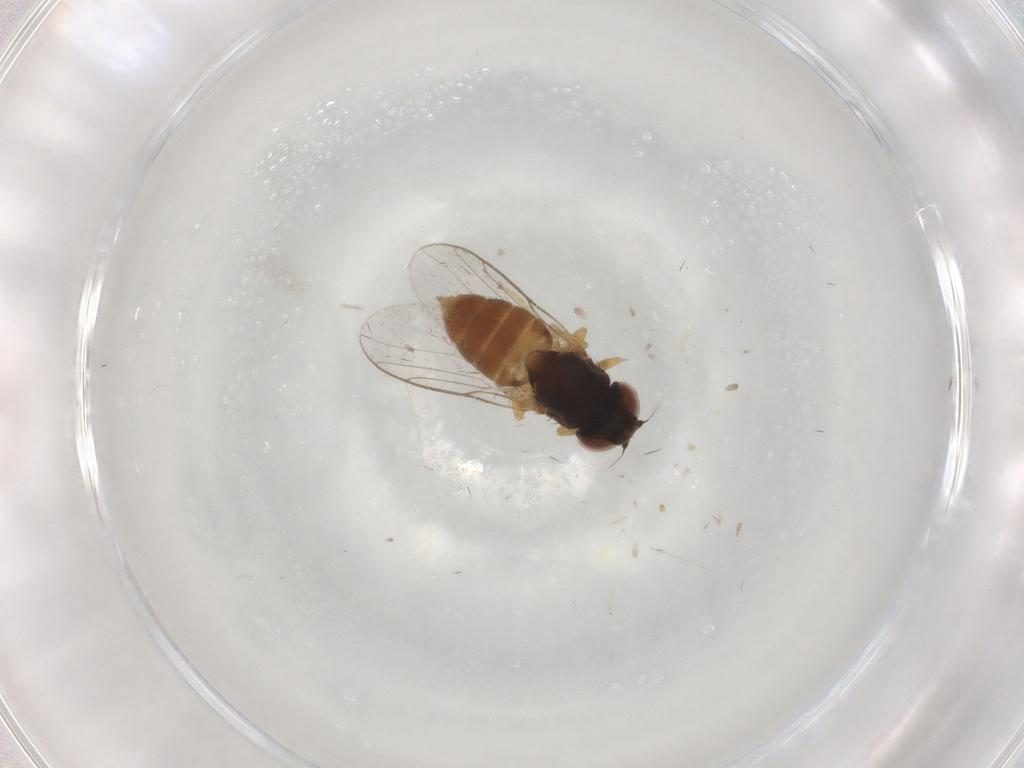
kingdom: Animalia
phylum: Arthropoda
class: Insecta
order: Diptera
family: Chloropidae
